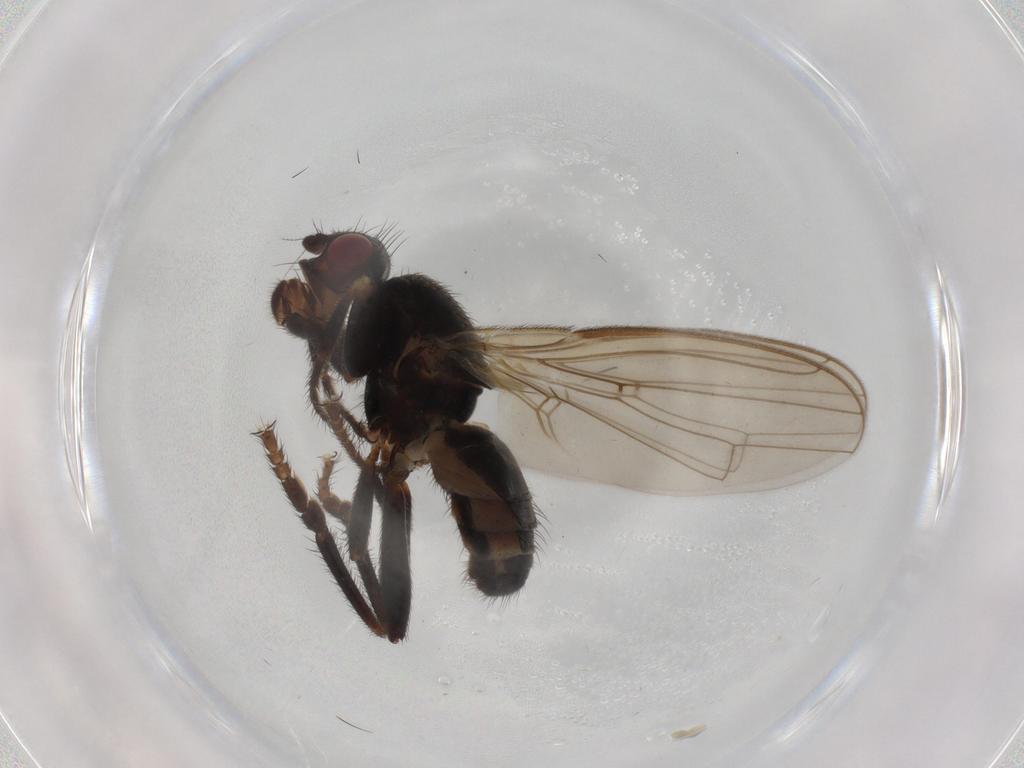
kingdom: Animalia
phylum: Arthropoda
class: Insecta
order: Diptera
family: Sphaeroceridae
